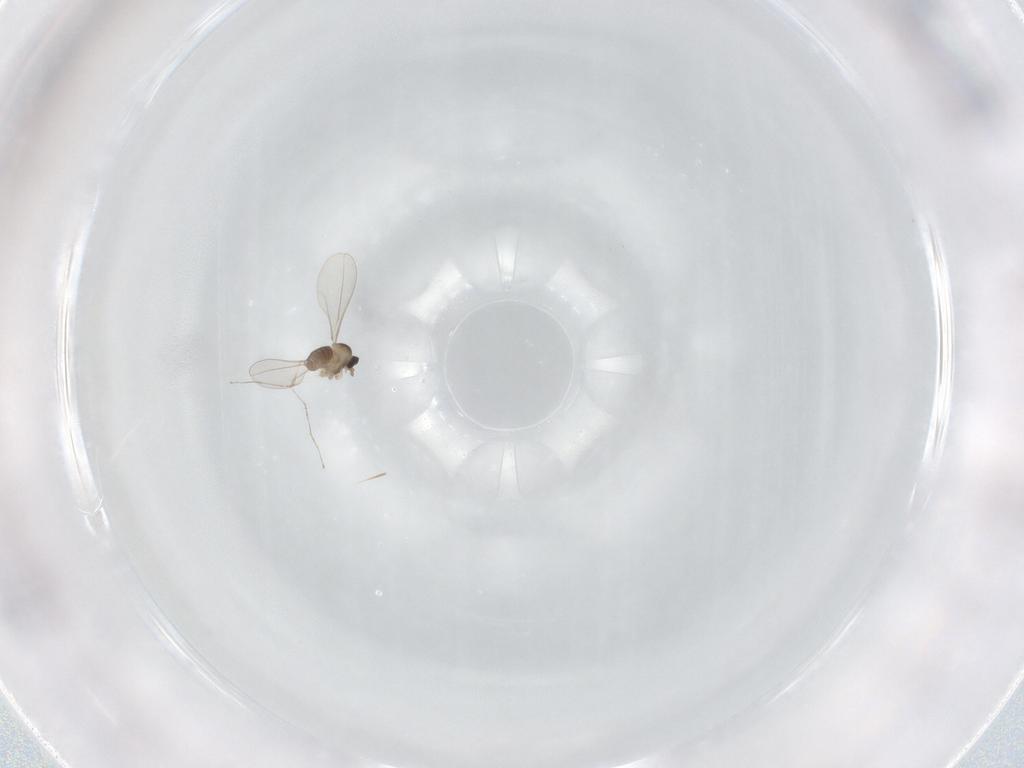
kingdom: Animalia
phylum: Arthropoda
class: Insecta
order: Diptera
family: Cecidomyiidae
